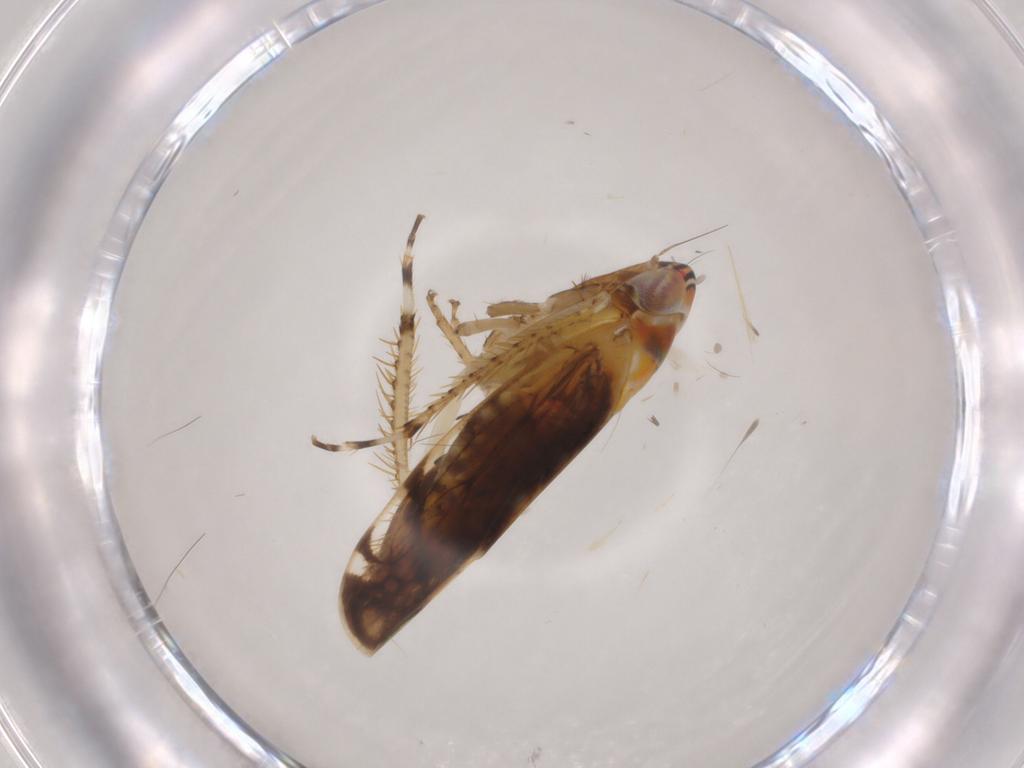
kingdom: Animalia
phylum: Arthropoda
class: Insecta
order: Hemiptera
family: Cicadellidae
